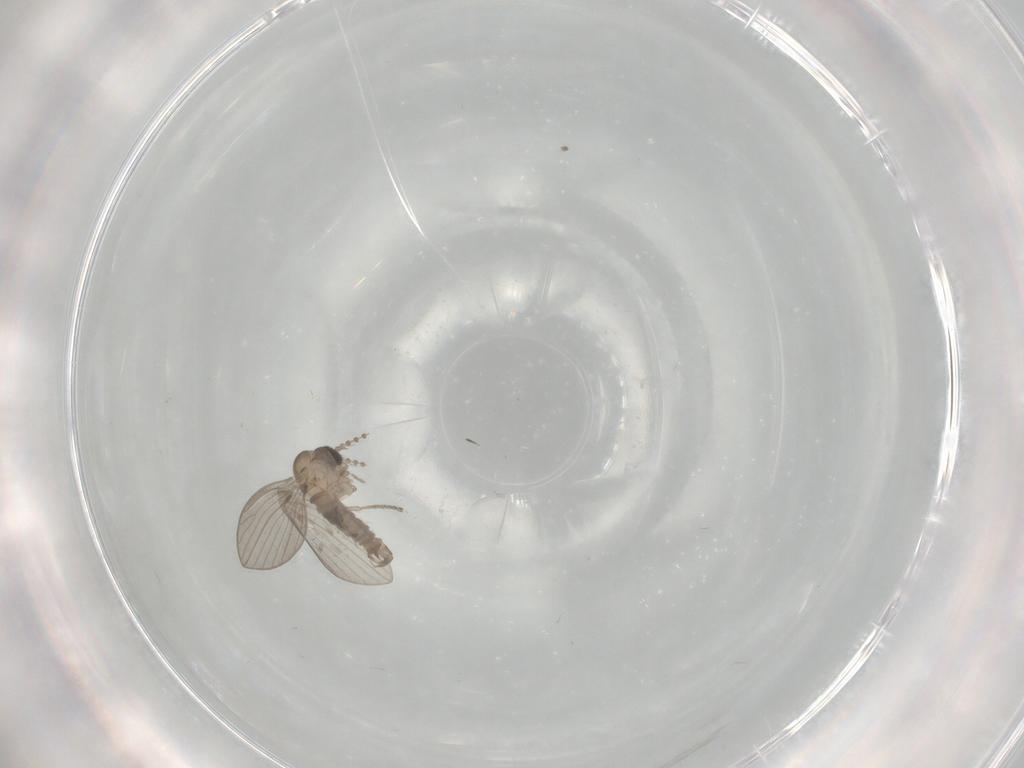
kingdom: Animalia
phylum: Arthropoda
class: Insecta
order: Diptera
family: Psychodidae
